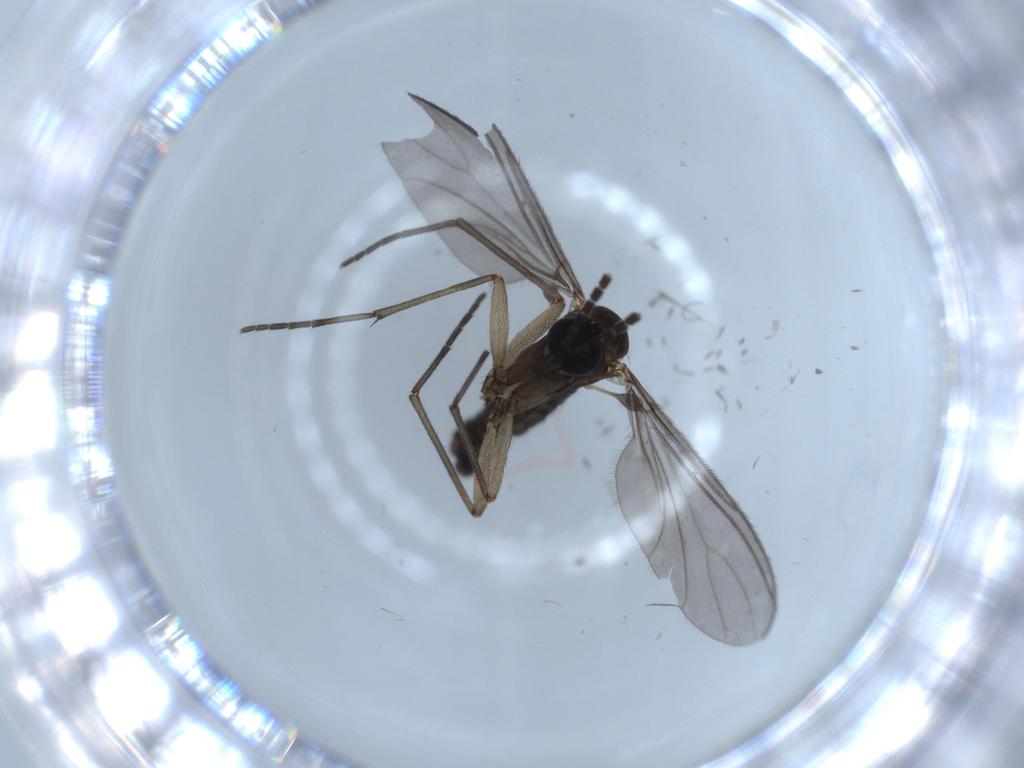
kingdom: Animalia
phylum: Arthropoda
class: Insecta
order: Diptera
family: Sciaridae
